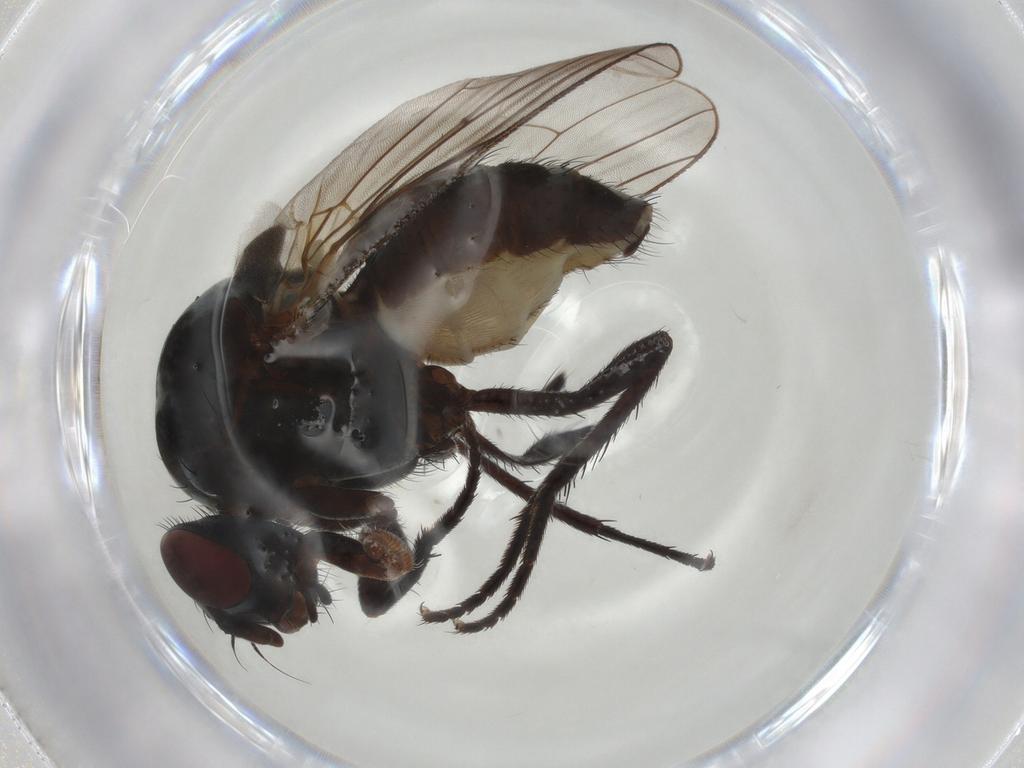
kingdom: Animalia
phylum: Arthropoda
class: Insecta
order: Diptera
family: Anthomyiidae
